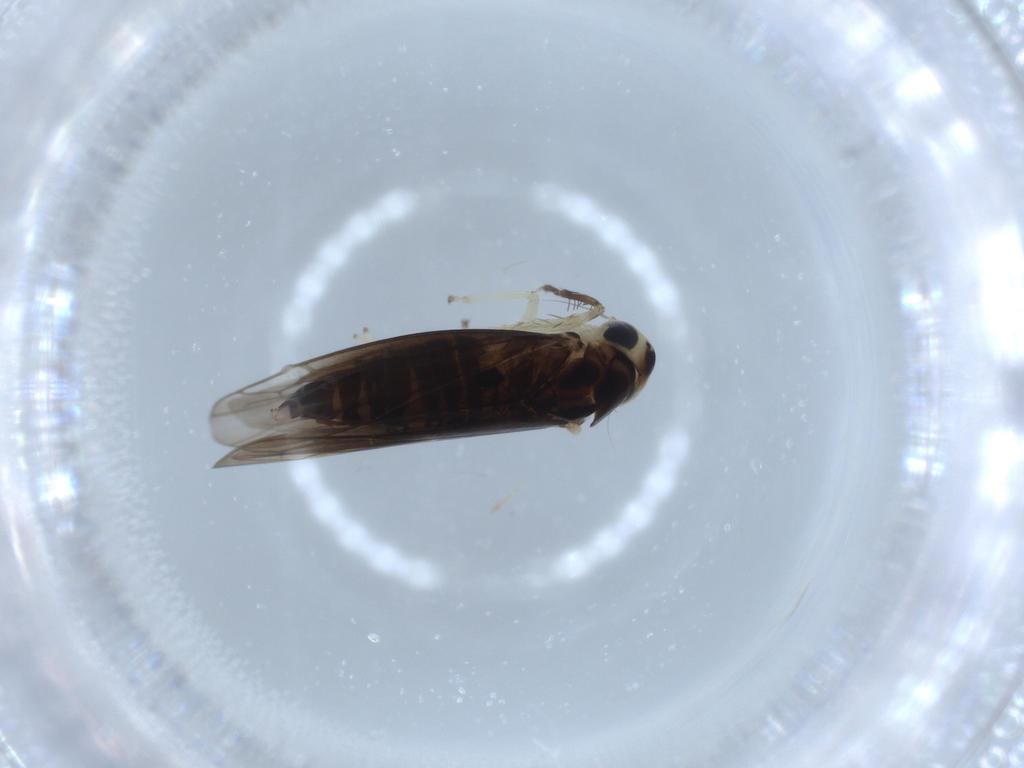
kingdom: Animalia
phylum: Arthropoda
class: Insecta
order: Hemiptera
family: Cicadellidae
